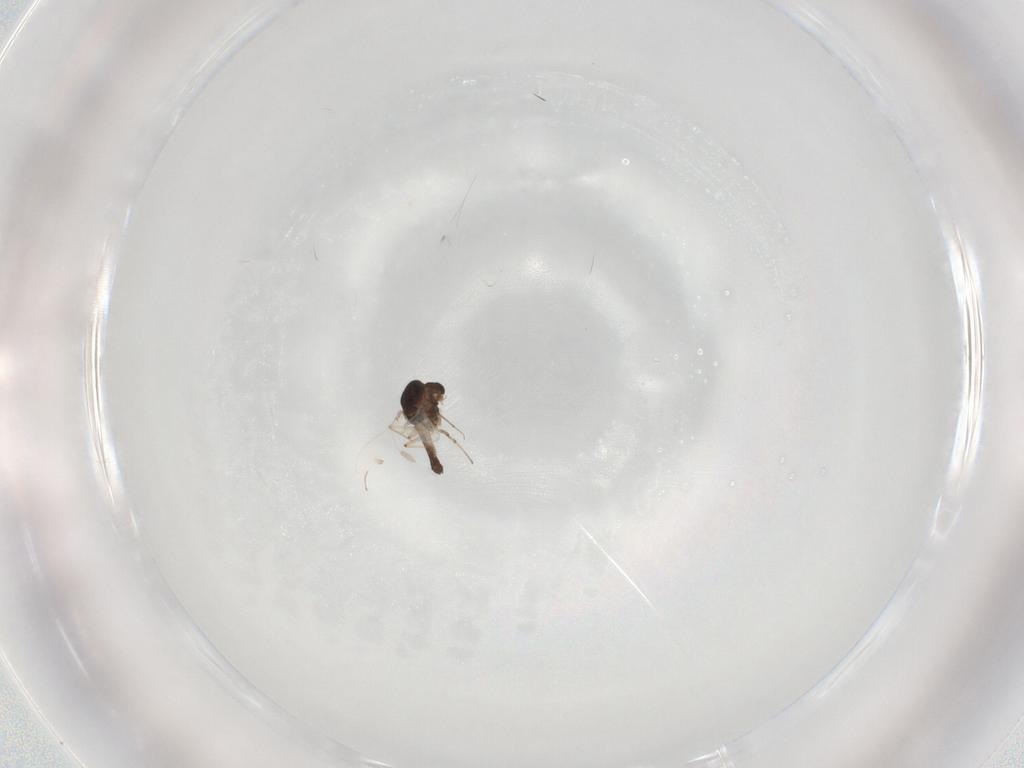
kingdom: Animalia
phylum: Arthropoda
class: Insecta
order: Diptera
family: Chironomidae
